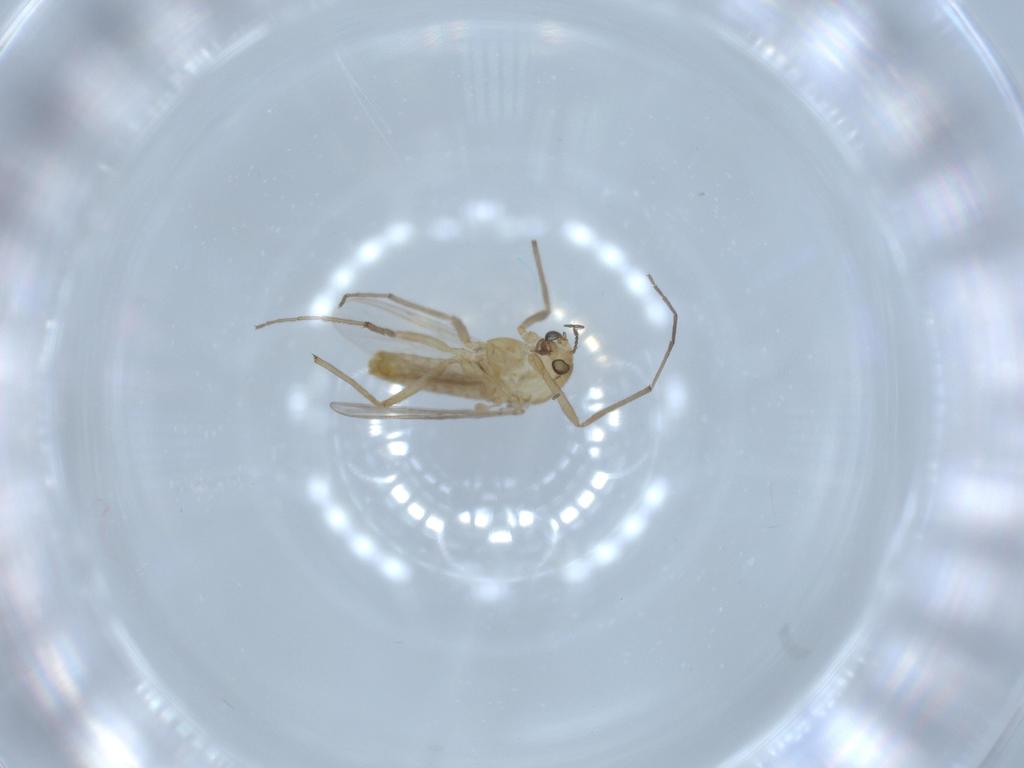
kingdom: Animalia
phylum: Arthropoda
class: Insecta
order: Diptera
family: Chironomidae
